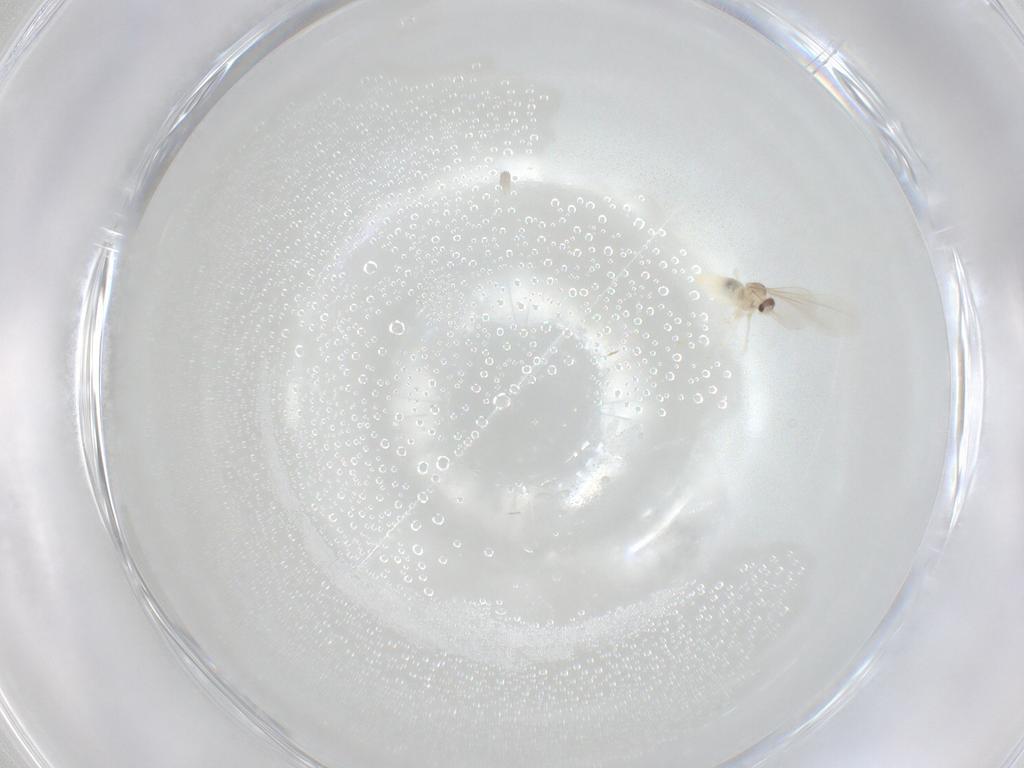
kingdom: Animalia
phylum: Arthropoda
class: Insecta
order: Diptera
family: Cecidomyiidae
